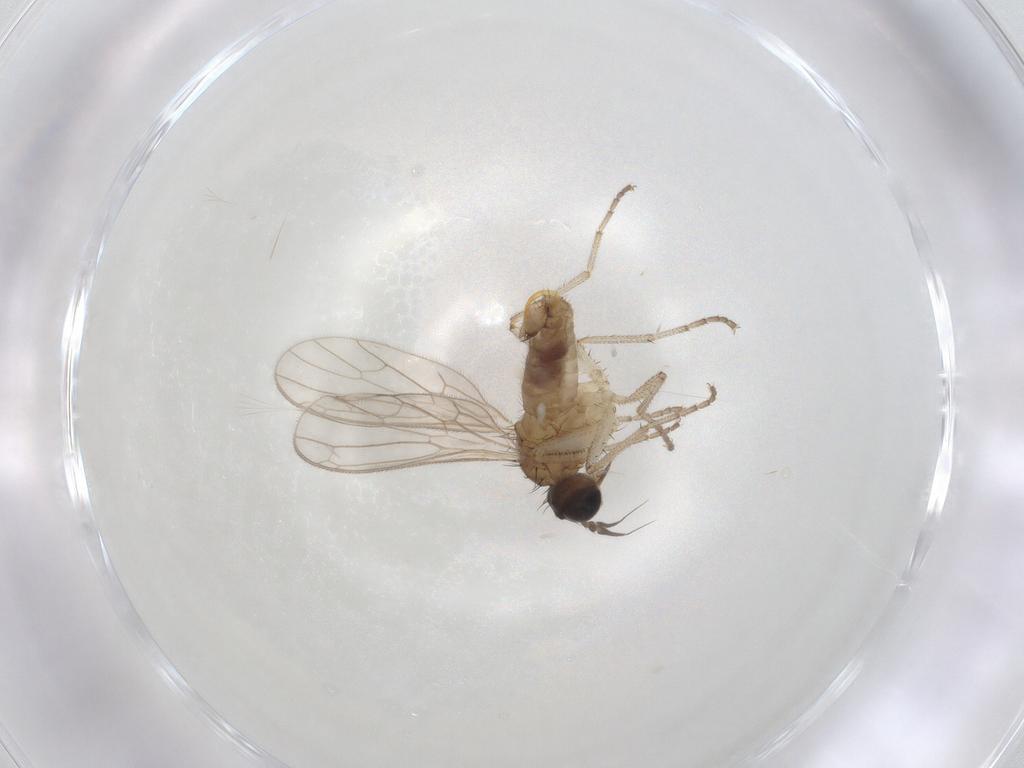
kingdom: Animalia
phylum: Arthropoda
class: Insecta
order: Diptera
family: Empididae
